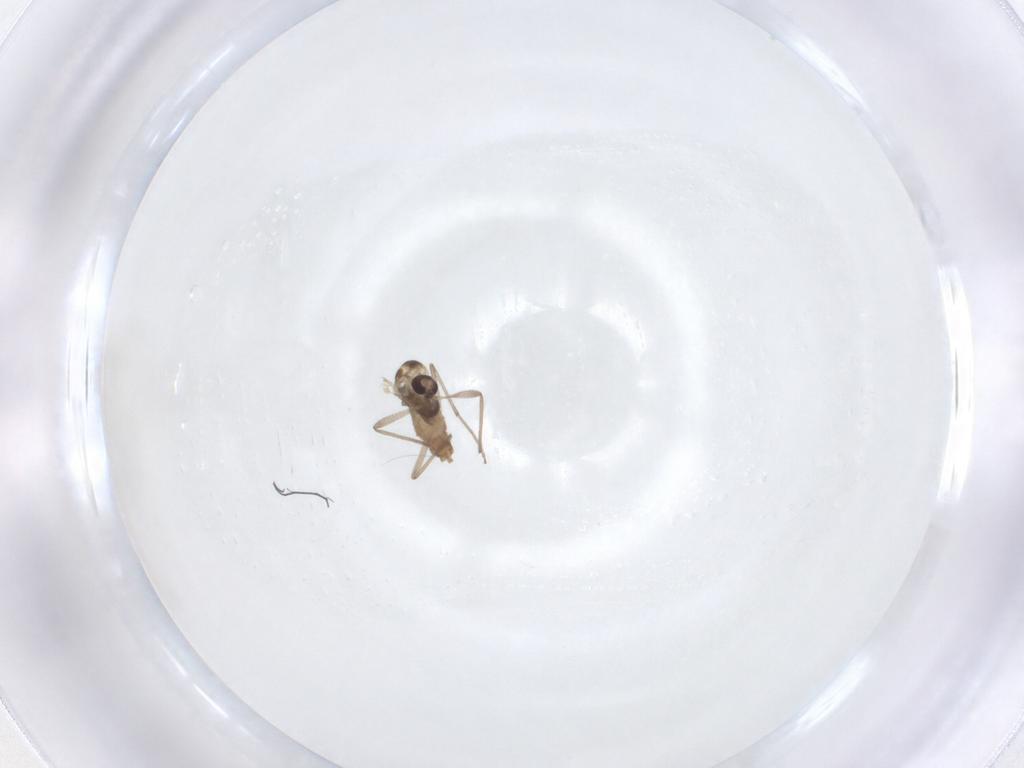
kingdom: Animalia
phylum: Arthropoda
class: Insecta
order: Diptera
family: Chironomidae
